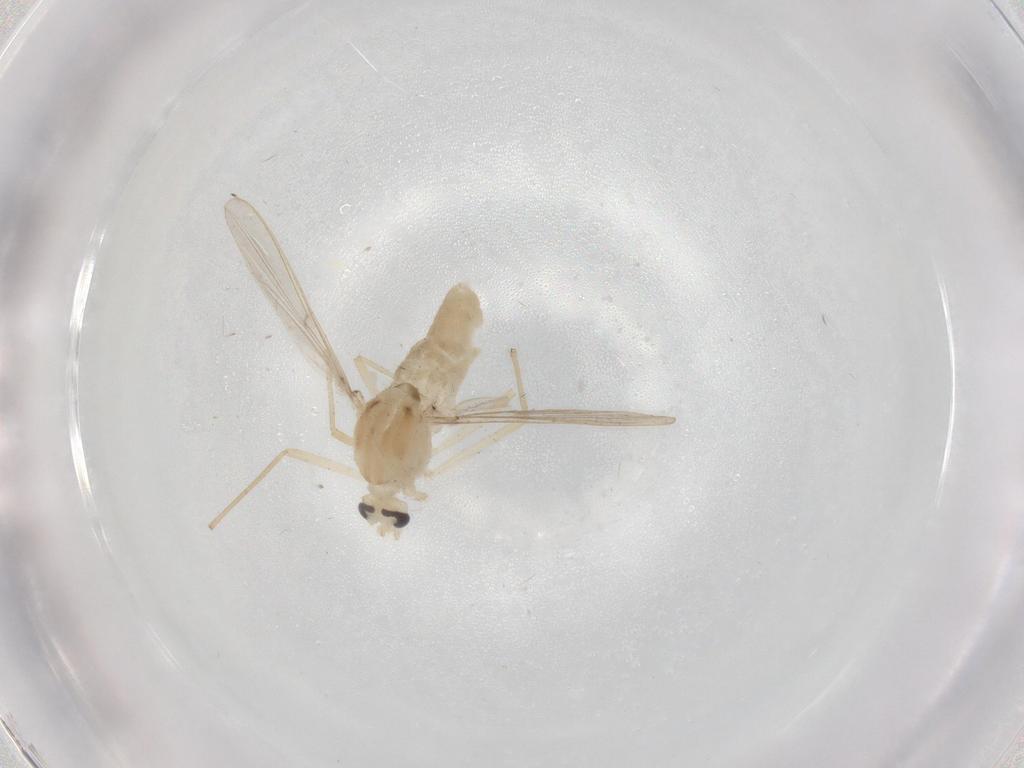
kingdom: Animalia
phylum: Arthropoda
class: Insecta
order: Diptera
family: Chironomidae
